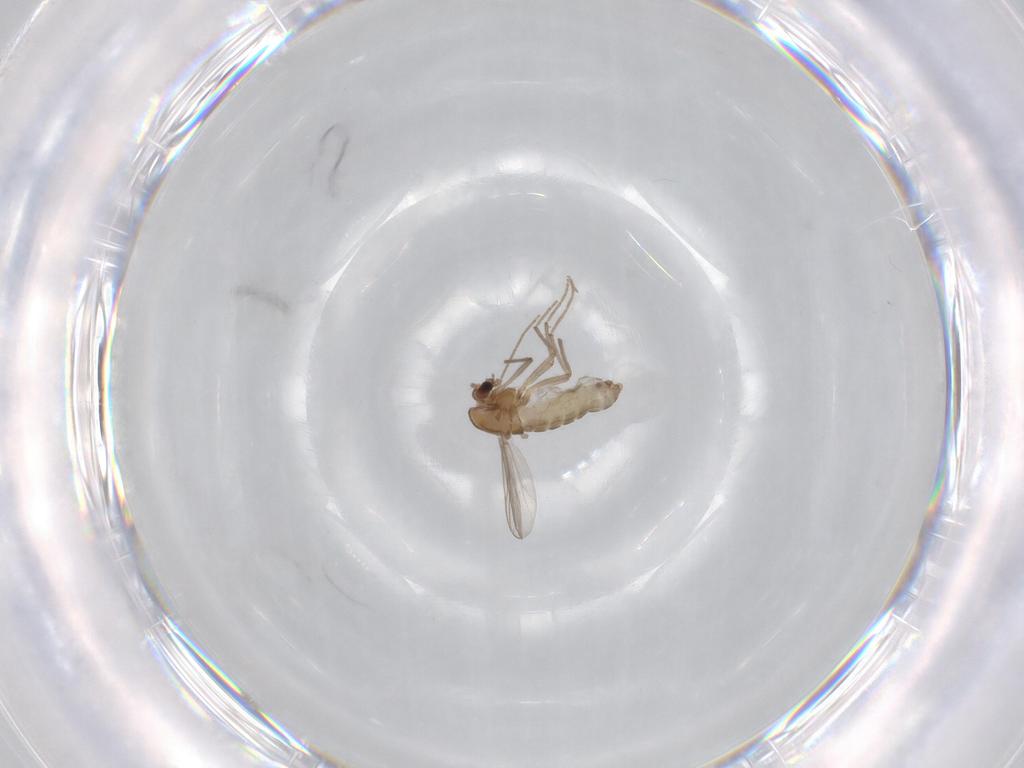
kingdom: Animalia
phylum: Arthropoda
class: Insecta
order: Diptera
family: Chironomidae
